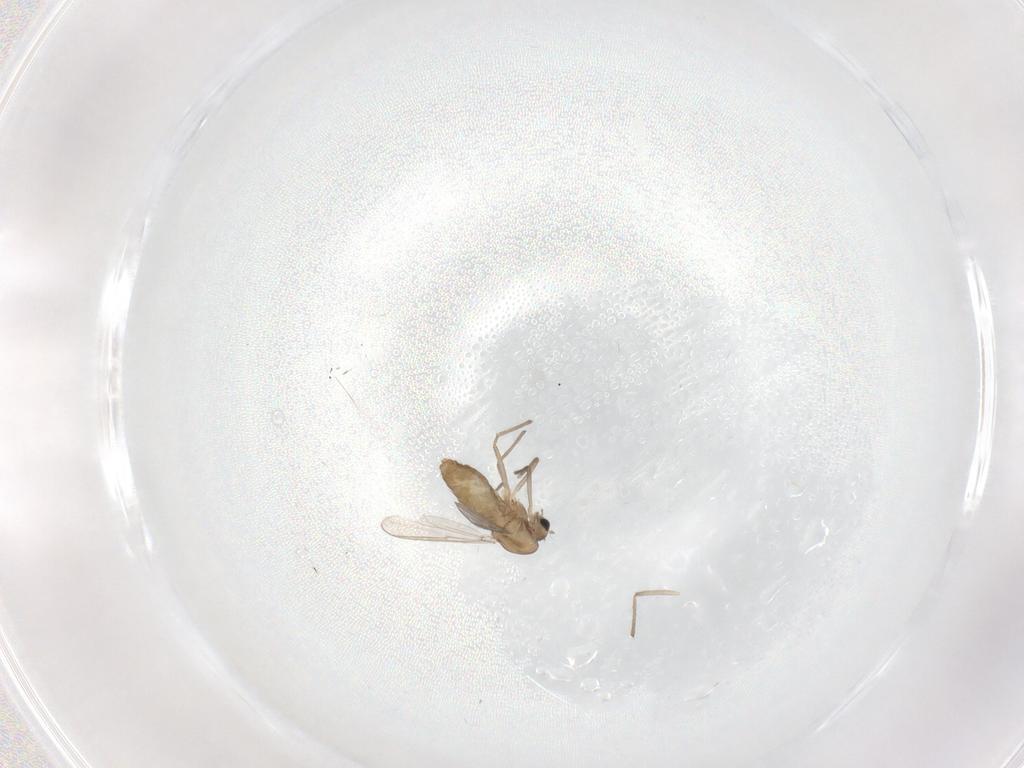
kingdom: Animalia
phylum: Arthropoda
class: Insecta
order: Diptera
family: Chironomidae
